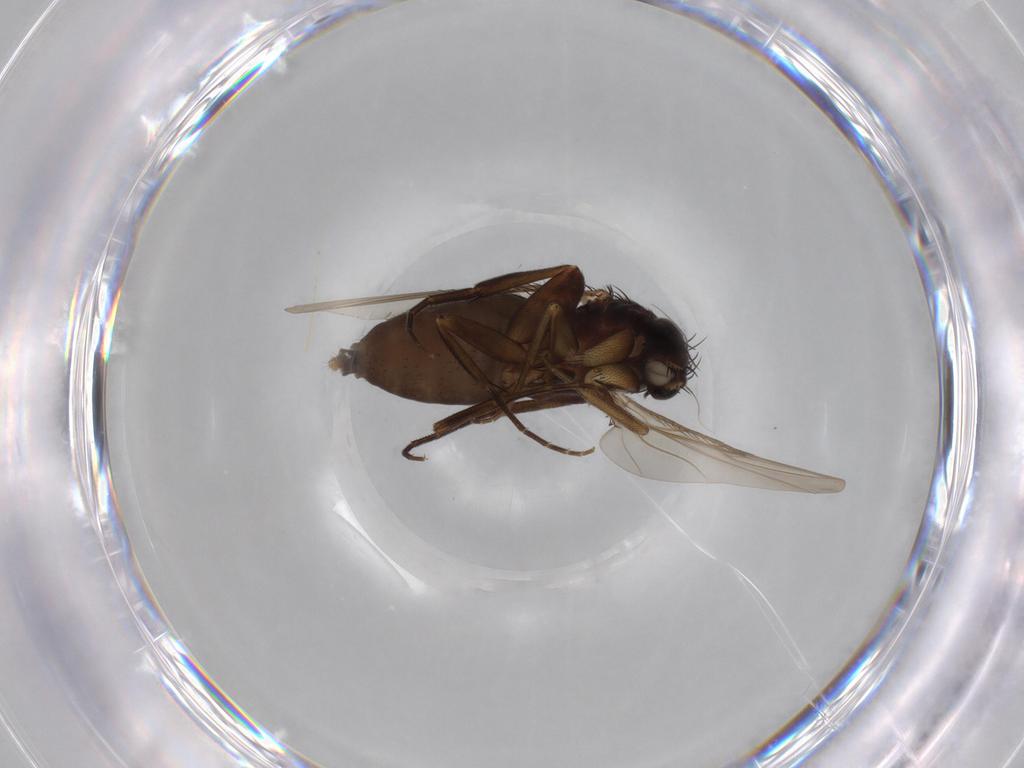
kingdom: Animalia
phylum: Arthropoda
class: Insecta
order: Diptera
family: Phoridae
